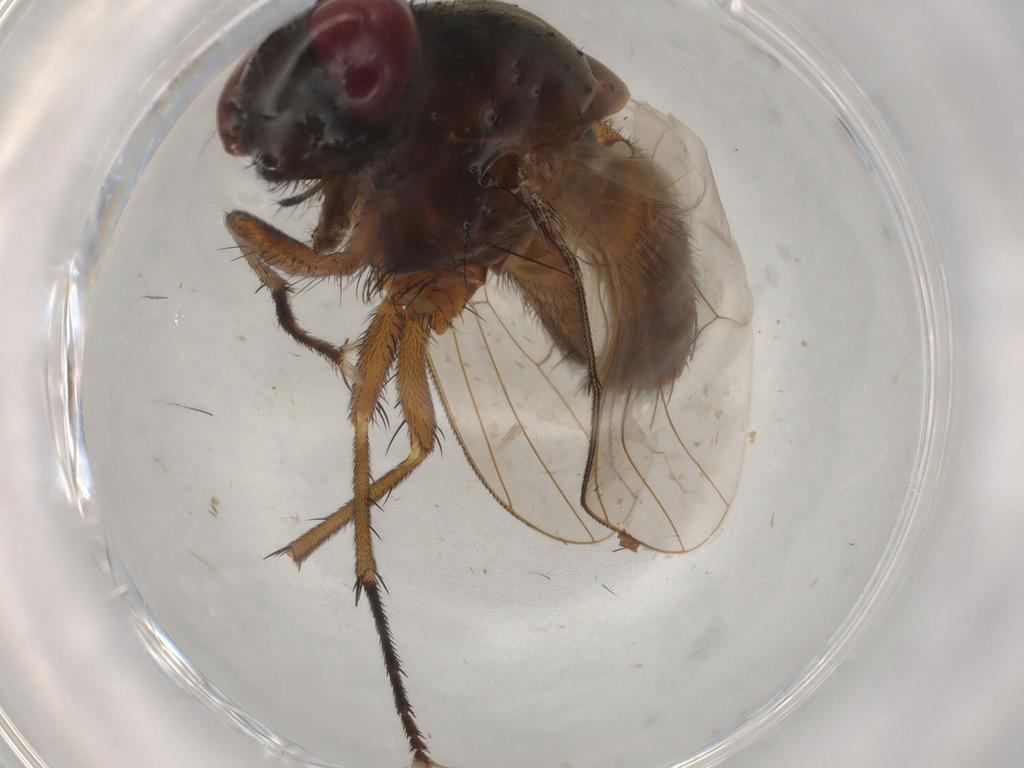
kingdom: Animalia
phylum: Arthropoda
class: Insecta
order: Diptera
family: Muscidae
